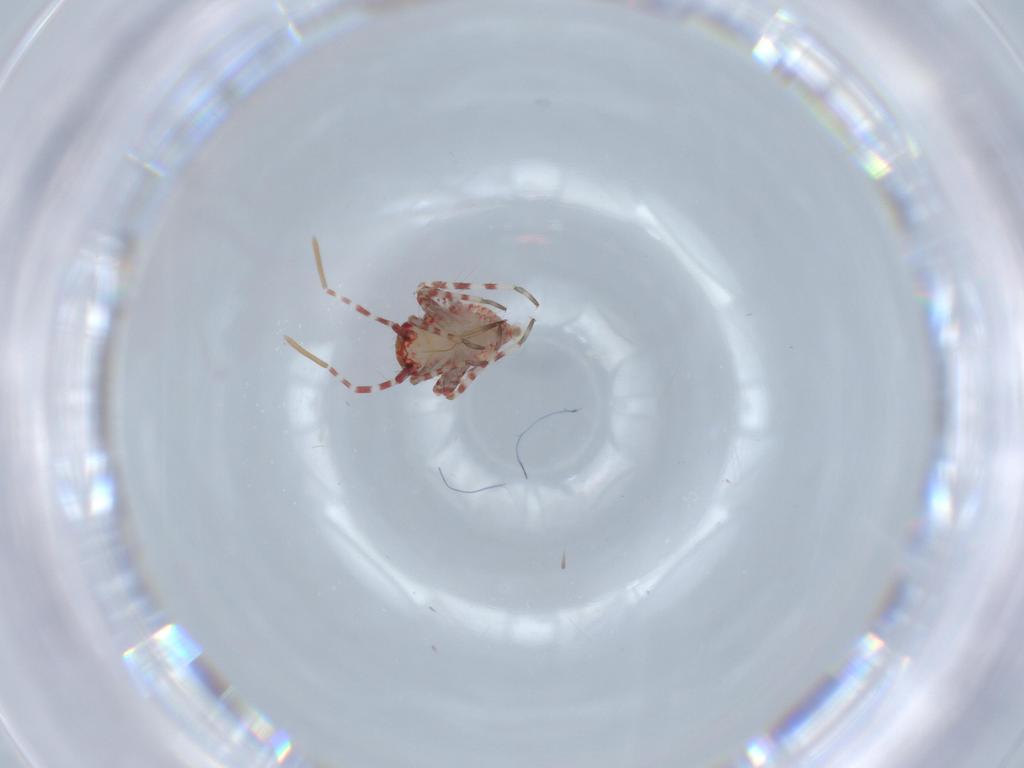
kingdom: Animalia
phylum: Arthropoda
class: Insecta
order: Hemiptera
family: Miridae
